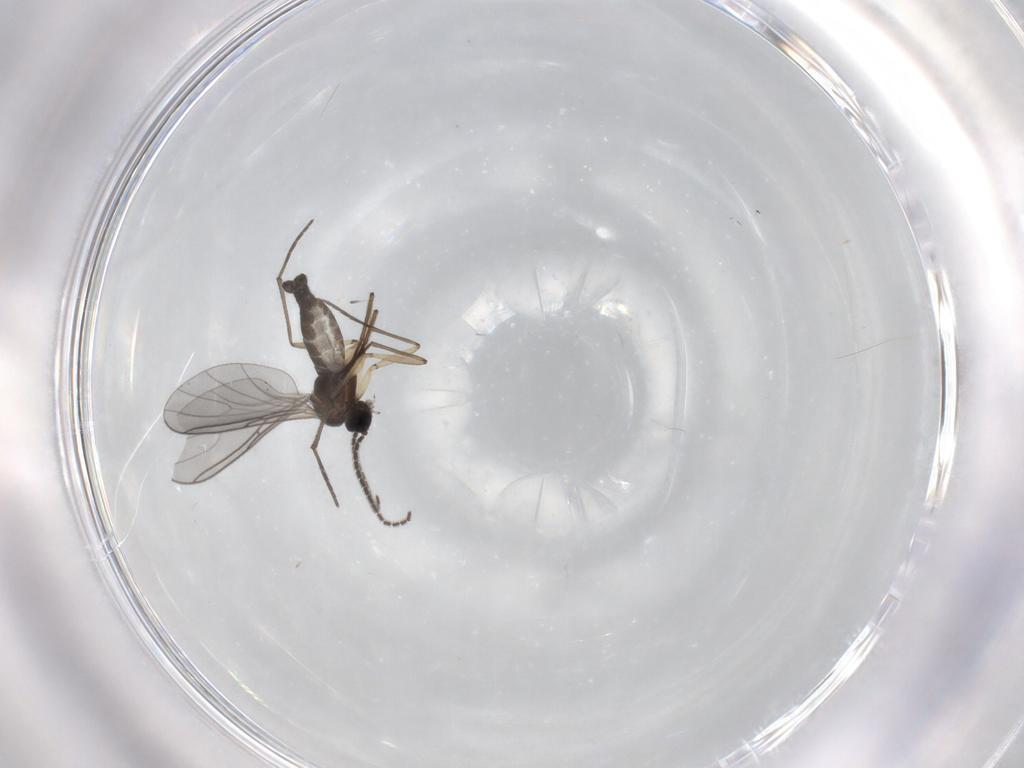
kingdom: Animalia
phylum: Arthropoda
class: Insecta
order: Diptera
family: Sciaridae
